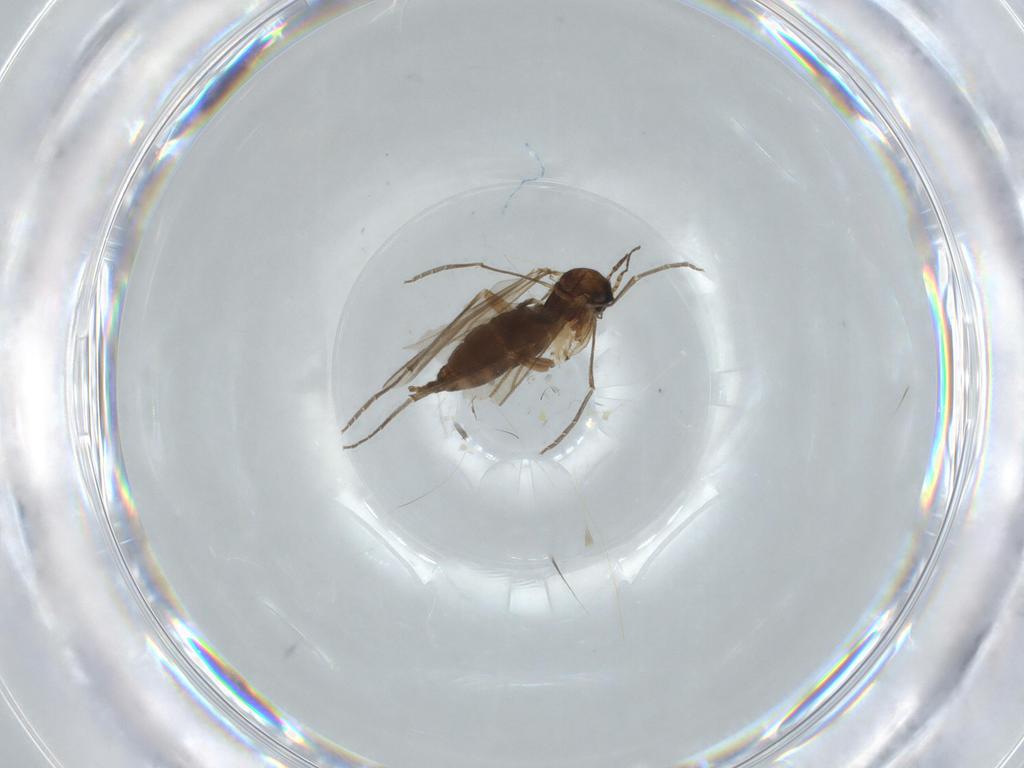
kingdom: Animalia
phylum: Arthropoda
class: Insecta
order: Diptera
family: Sciaridae
